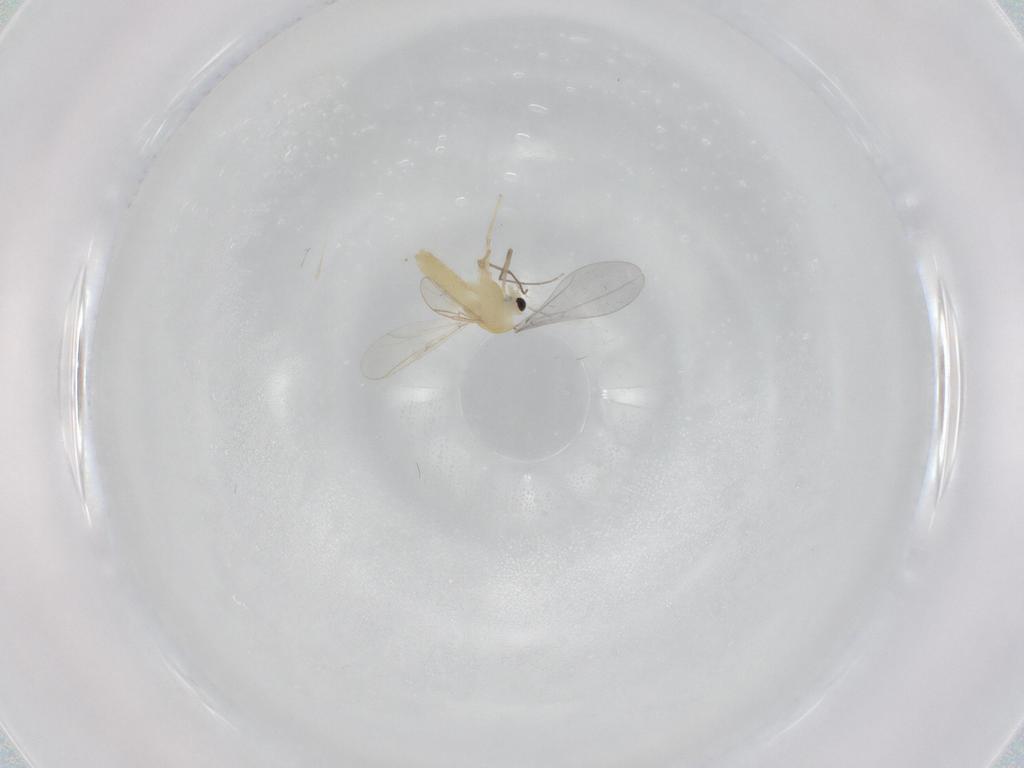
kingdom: Animalia
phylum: Arthropoda
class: Insecta
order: Diptera
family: Chironomidae
